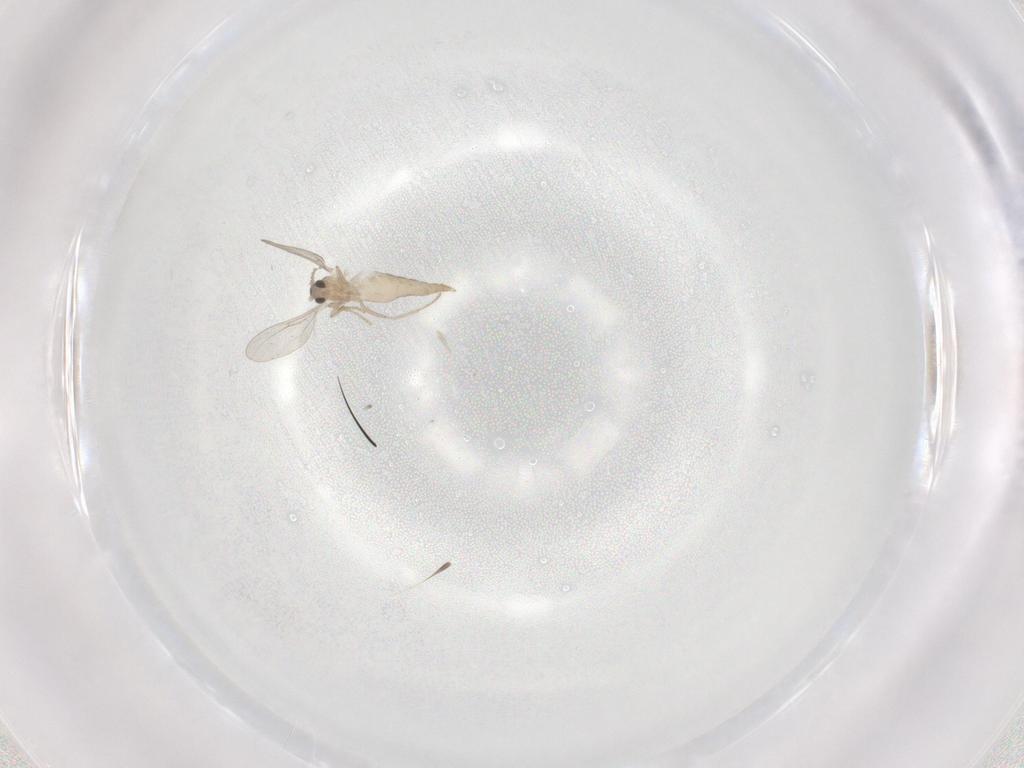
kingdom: Animalia
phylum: Arthropoda
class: Insecta
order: Diptera
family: Cecidomyiidae
